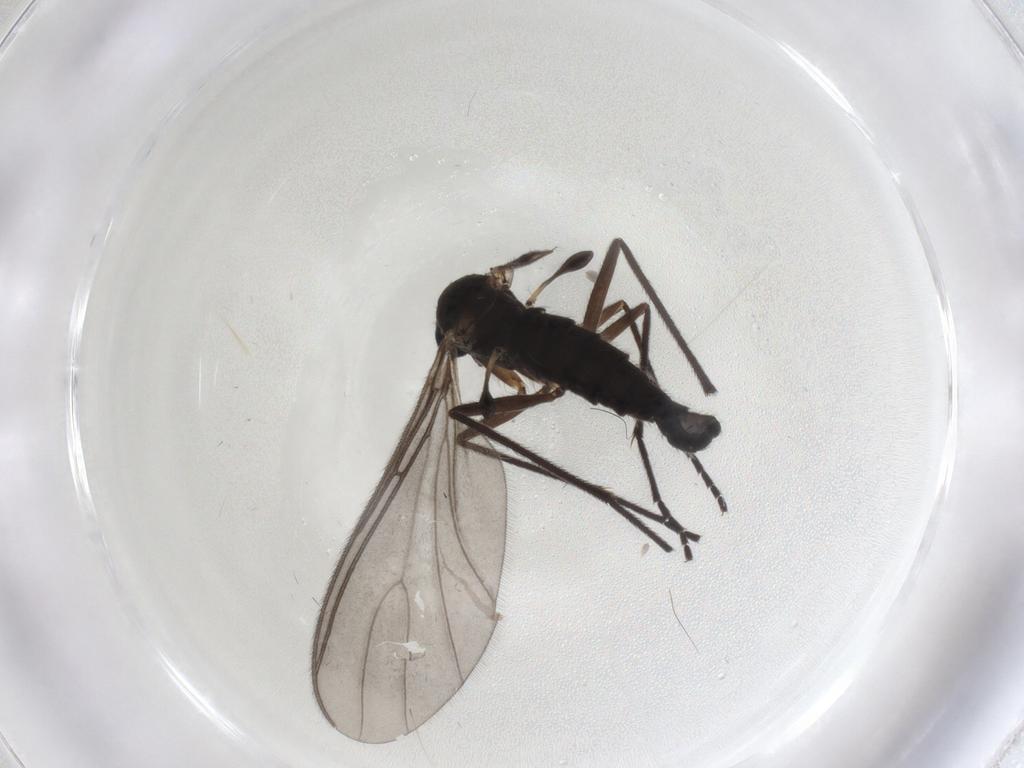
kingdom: Animalia
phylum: Arthropoda
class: Insecta
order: Diptera
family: Sciaridae
